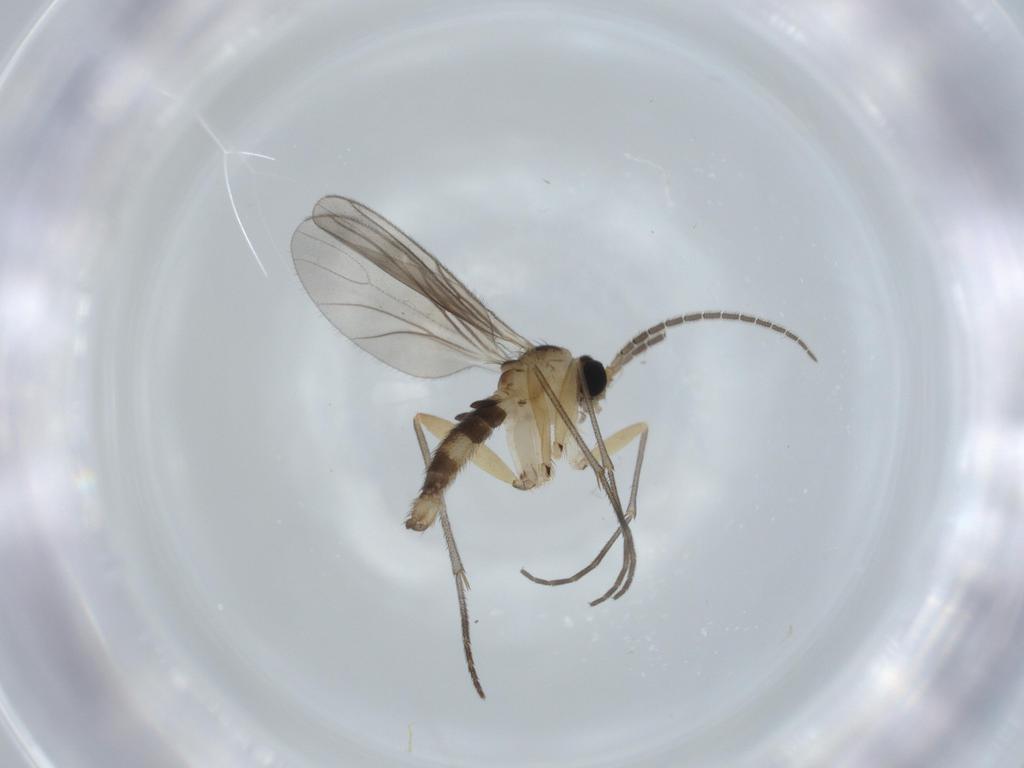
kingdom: Animalia
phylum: Arthropoda
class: Insecta
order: Diptera
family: Sciaridae
